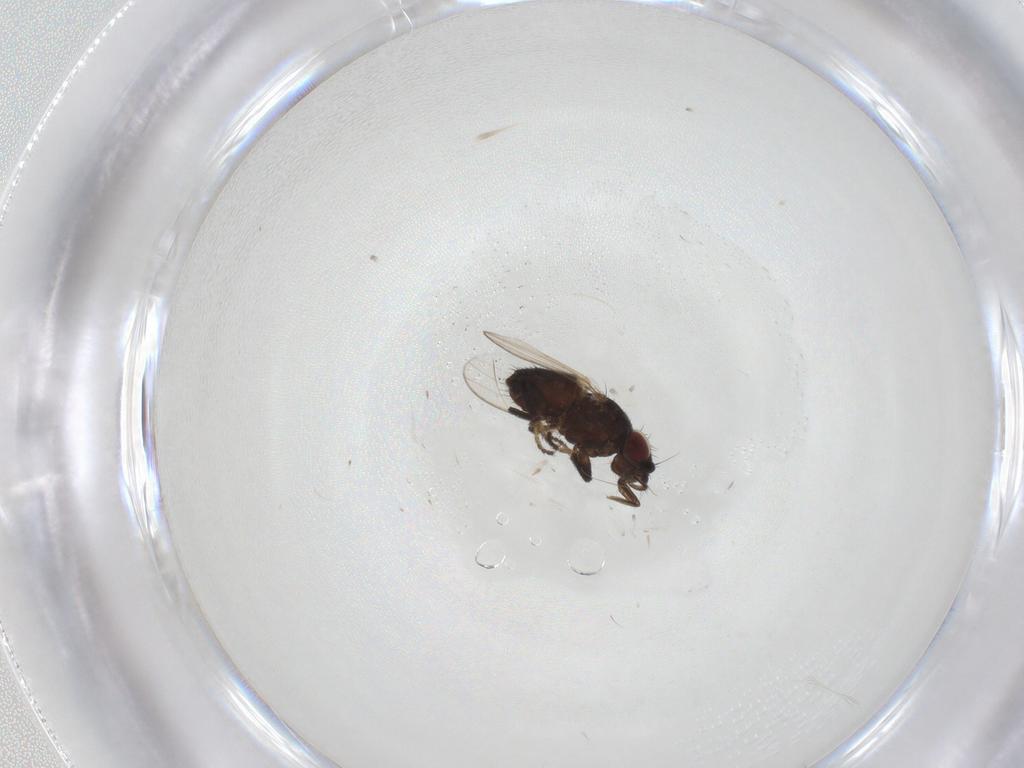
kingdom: Animalia
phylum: Arthropoda
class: Insecta
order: Diptera
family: Milichiidae
